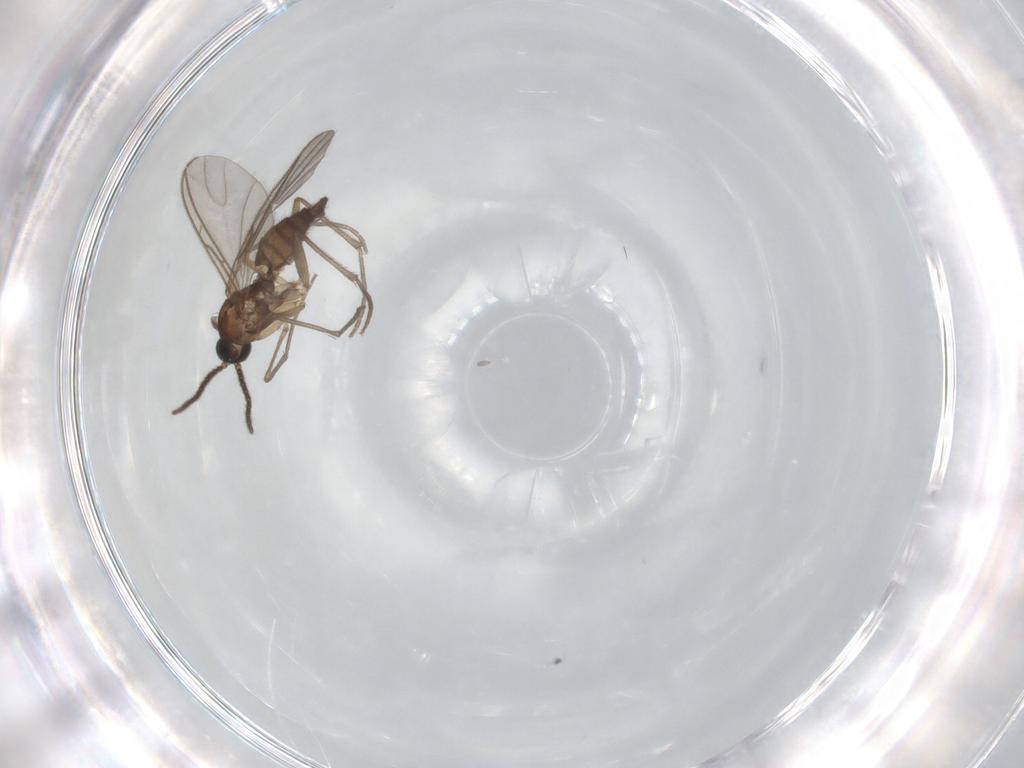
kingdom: Animalia
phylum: Arthropoda
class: Insecta
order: Diptera
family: Sciaridae
